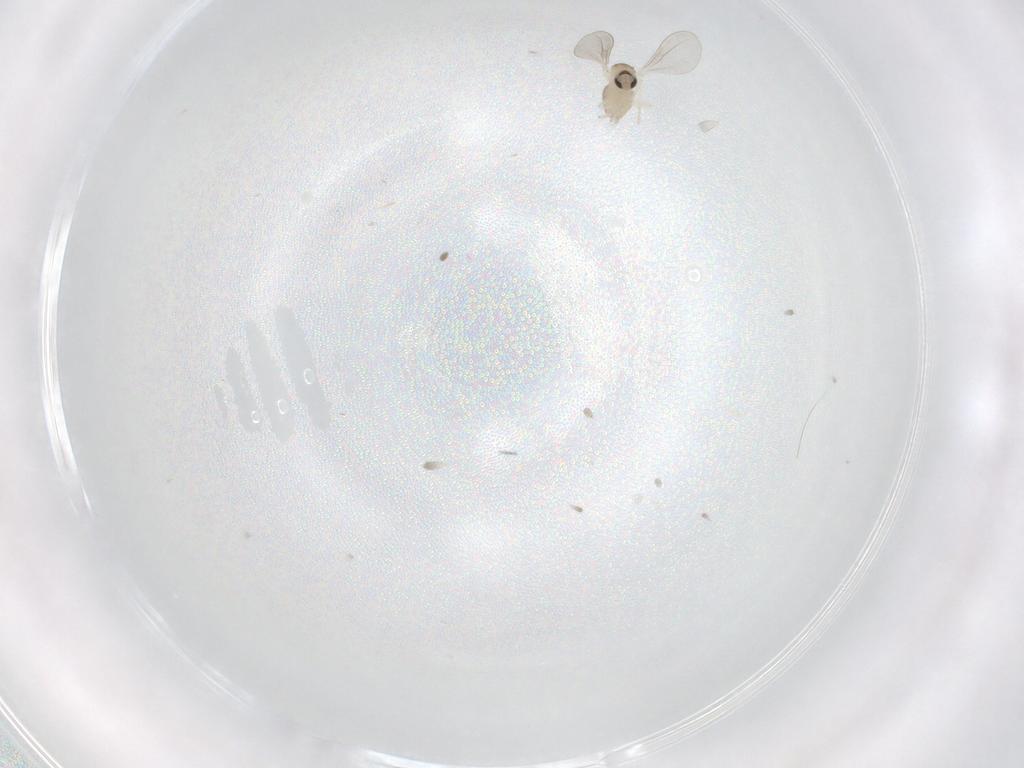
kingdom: Animalia
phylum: Arthropoda
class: Insecta
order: Diptera
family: Cecidomyiidae
